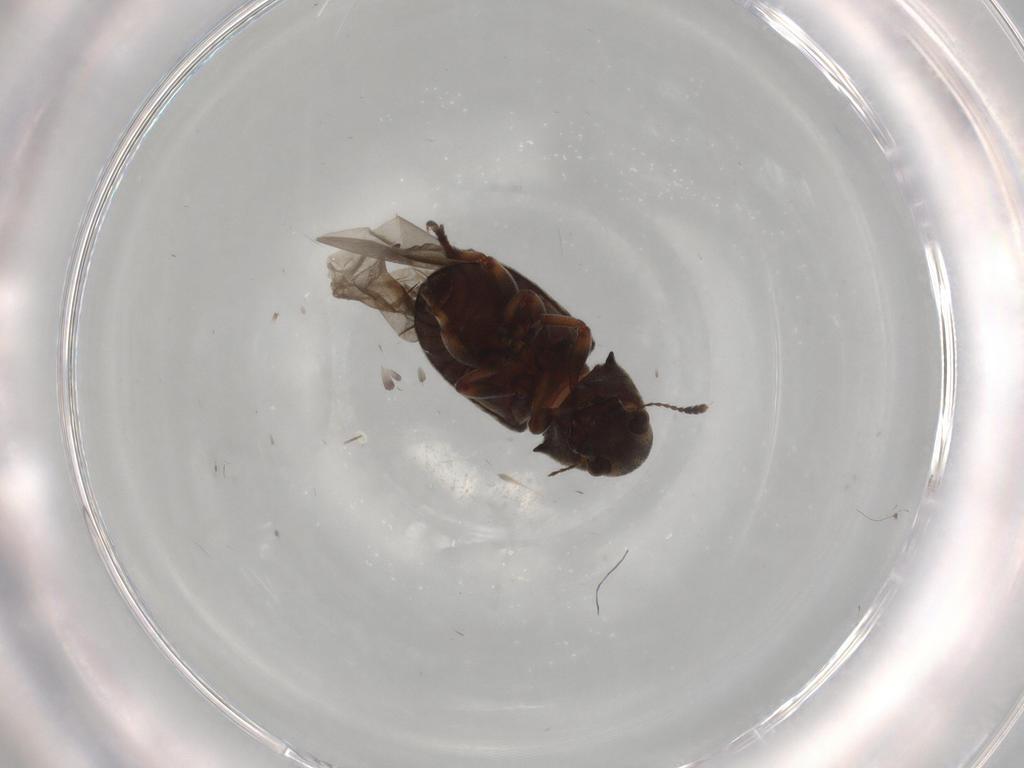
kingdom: Animalia
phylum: Arthropoda
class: Insecta
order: Coleoptera
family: Anthribidae
